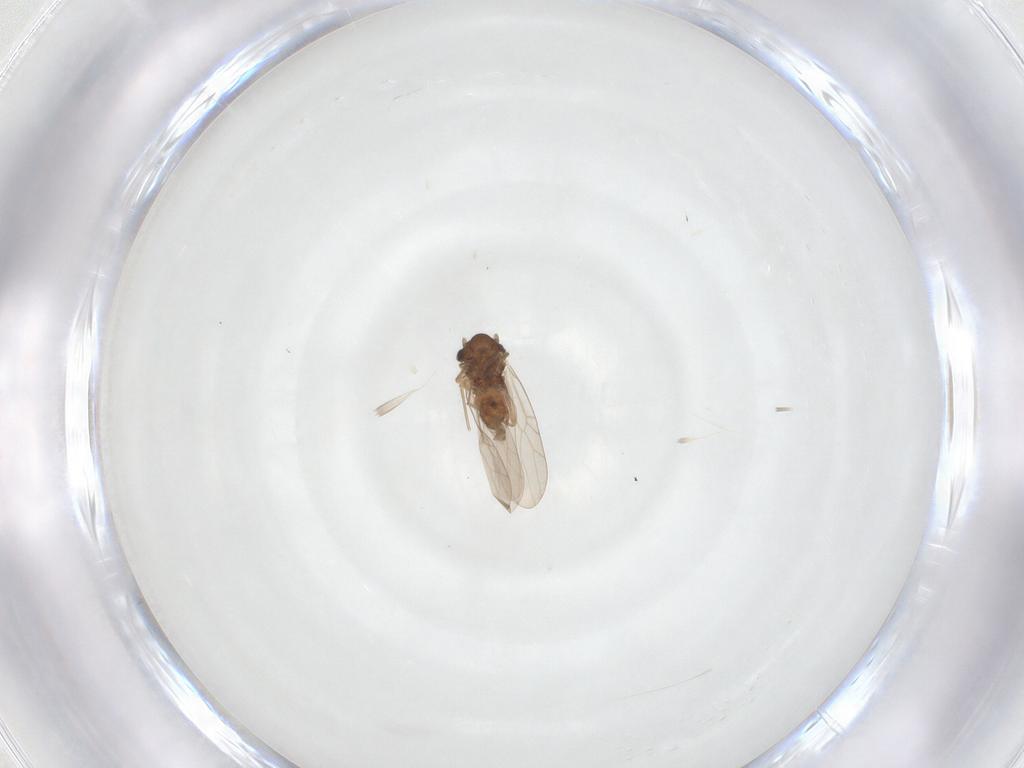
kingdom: Animalia
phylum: Arthropoda
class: Insecta
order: Psocodea
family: Lepidopsocidae
